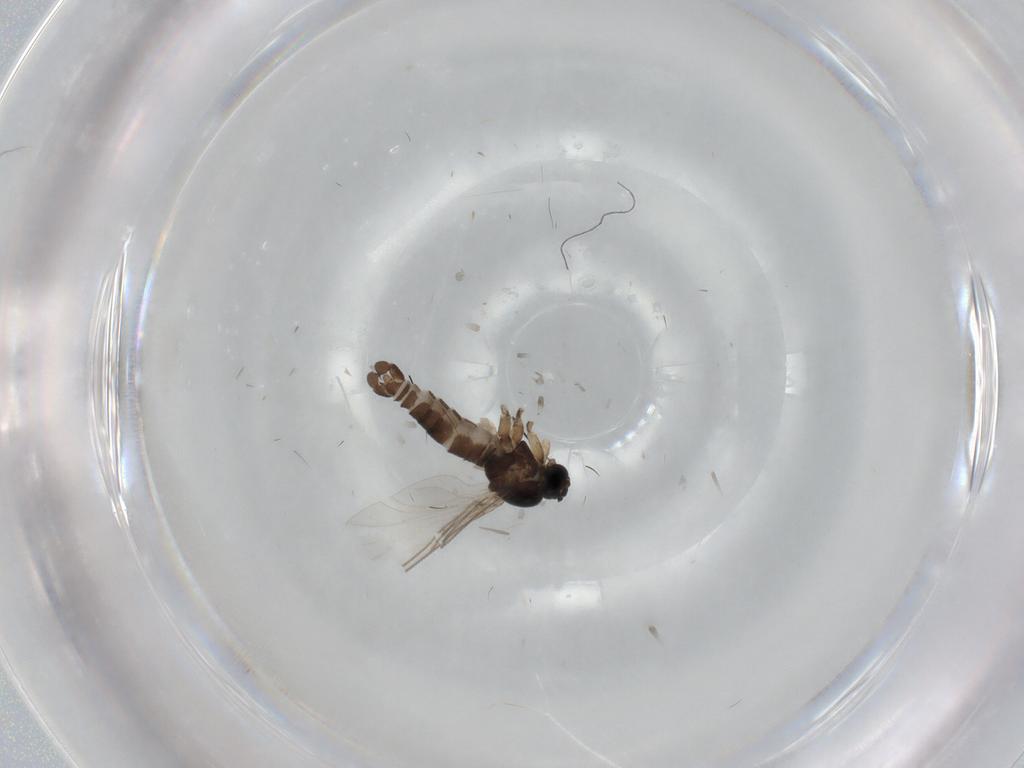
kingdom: Animalia
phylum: Arthropoda
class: Insecta
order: Diptera
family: Sciaridae
